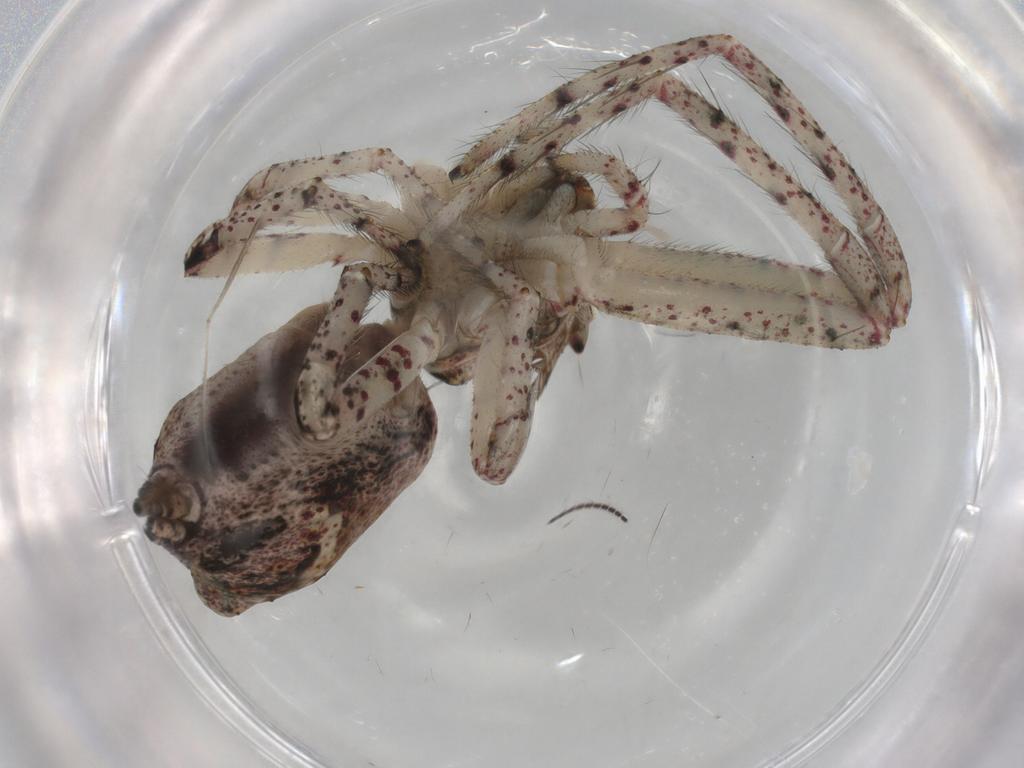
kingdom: Animalia
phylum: Arthropoda
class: Arachnida
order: Araneae
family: Thomisidae
